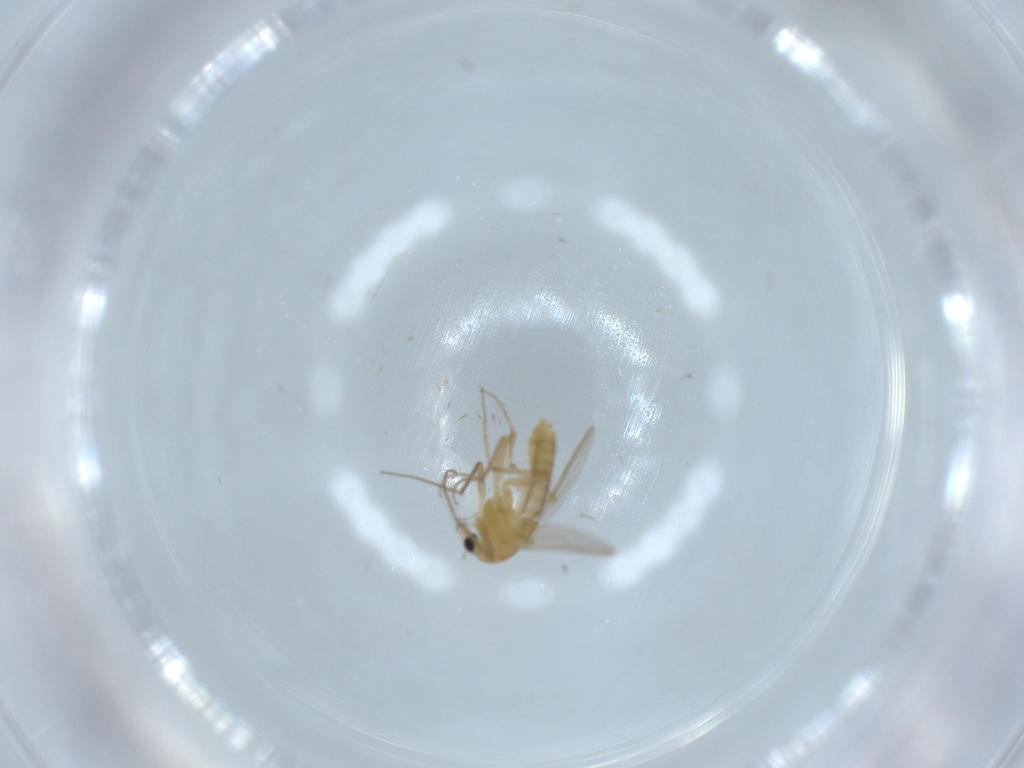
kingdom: Animalia
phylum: Arthropoda
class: Insecta
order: Diptera
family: Chironomidae
